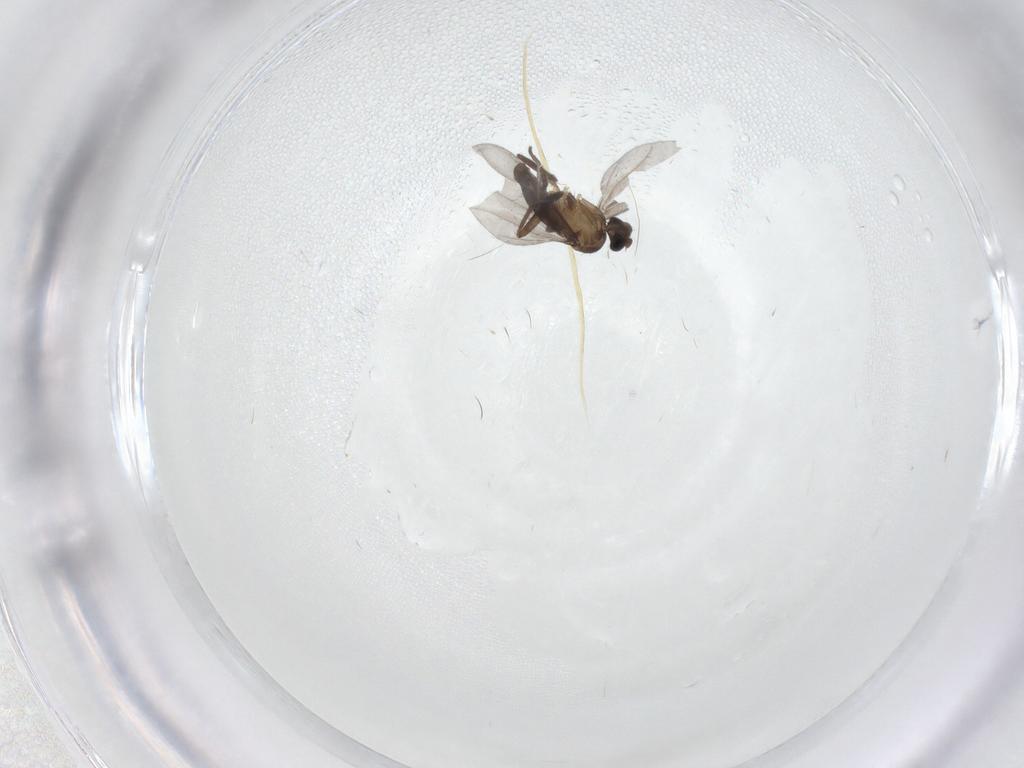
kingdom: Animalia
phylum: Arthropoda
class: Insecta
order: Diptera
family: Phoridae
